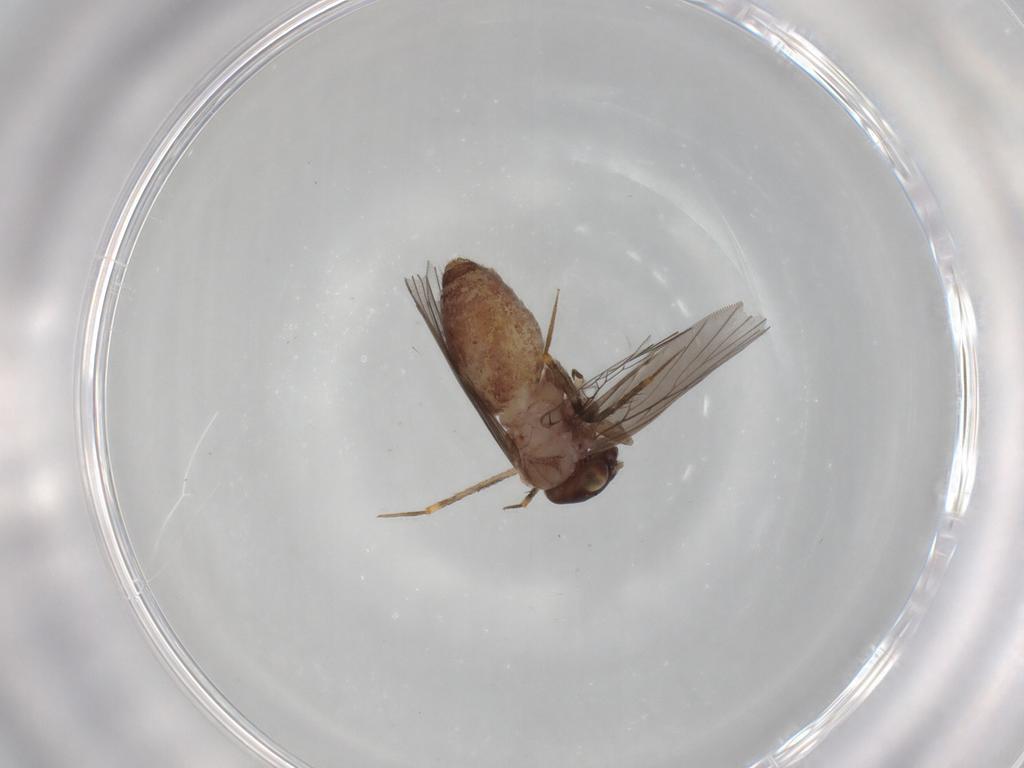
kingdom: Animalia
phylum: Arthropoda
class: Insecta
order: Psocodea
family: Lepidopsocidae
